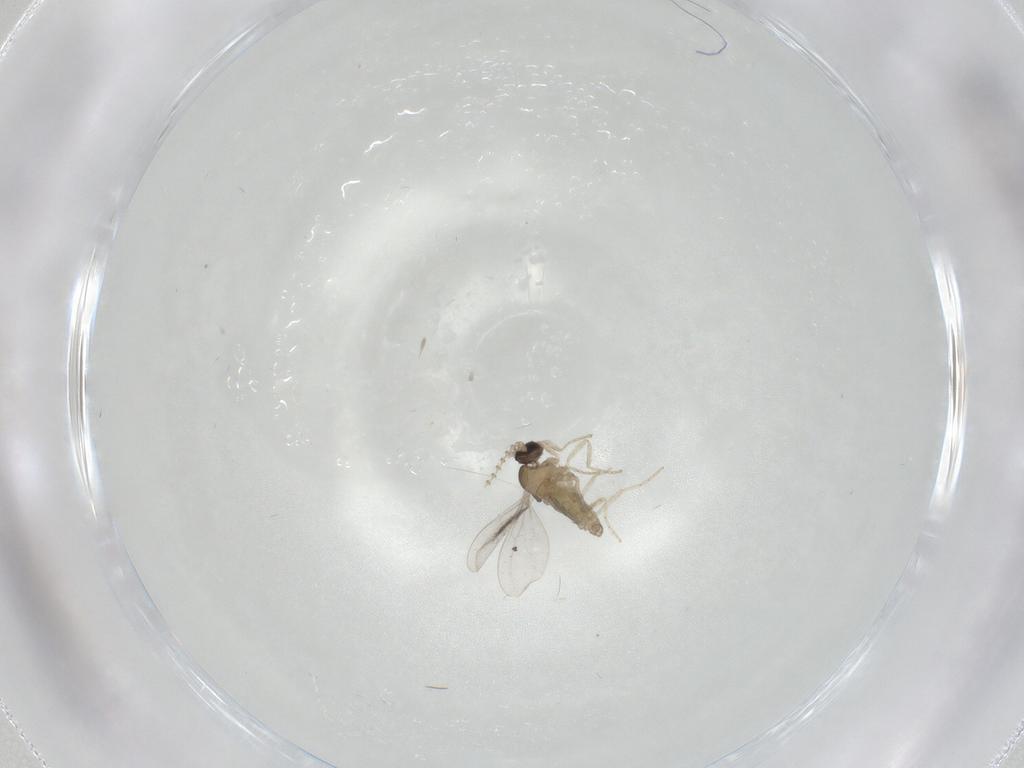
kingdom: Animalia
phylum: Arthropoda
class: Insecta
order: Diptera
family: Cecidomyiidae
